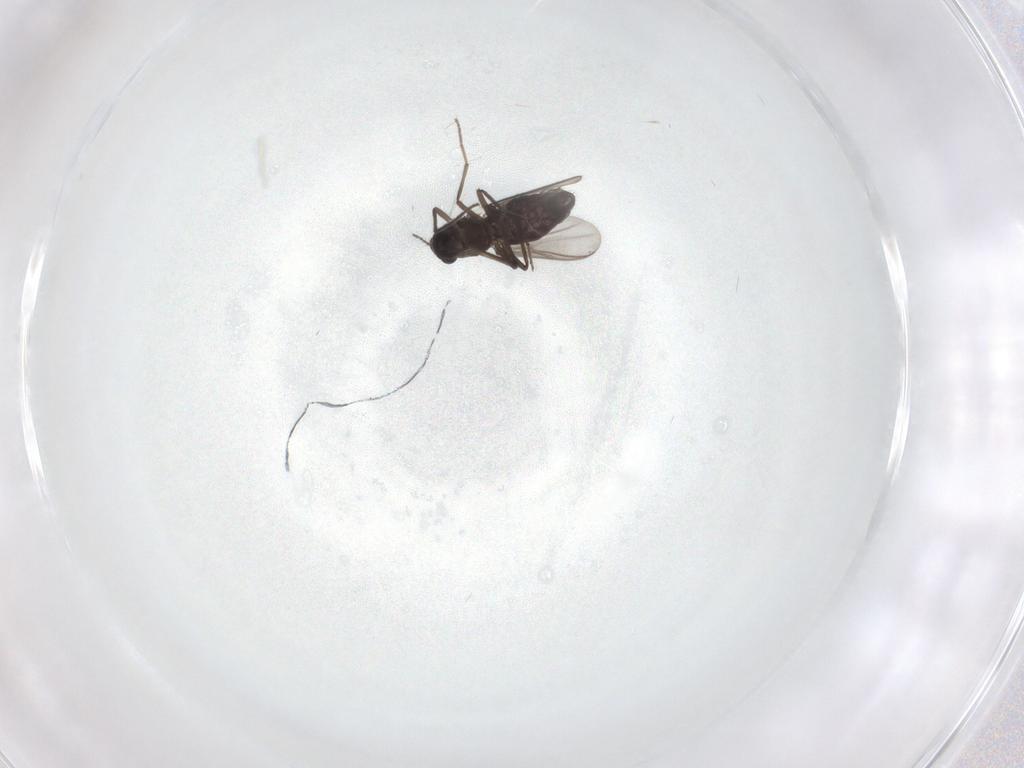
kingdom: Animalia
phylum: Arthropoda
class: Insecta
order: Diptera
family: Chironomidae
